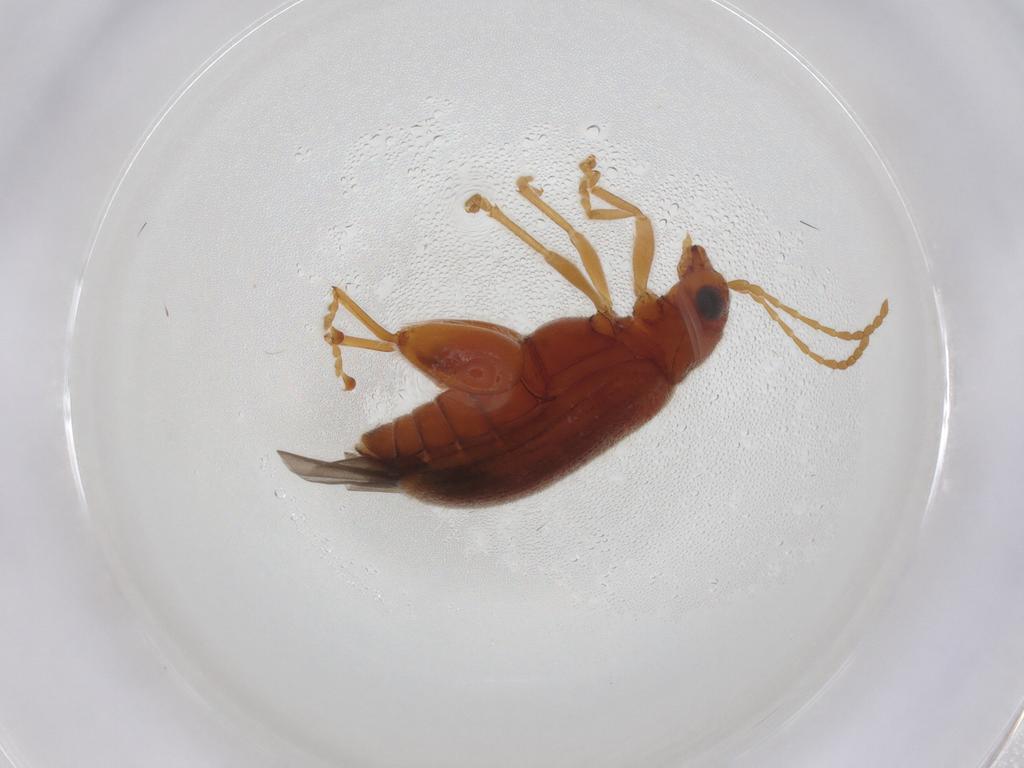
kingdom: Animalia
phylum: Arthropoda
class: Insecta
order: Coleoptera
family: Chrysomelidae
